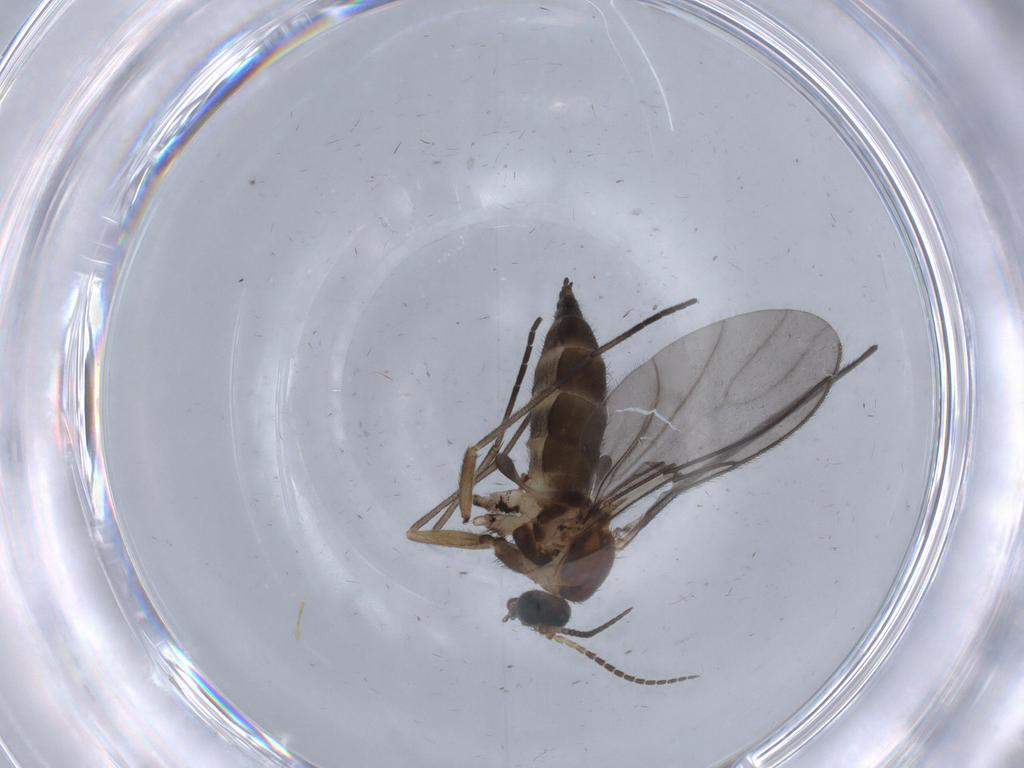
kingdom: Animalia
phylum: Arthropoda
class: Insecta
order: Diptera
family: Sciaridae
